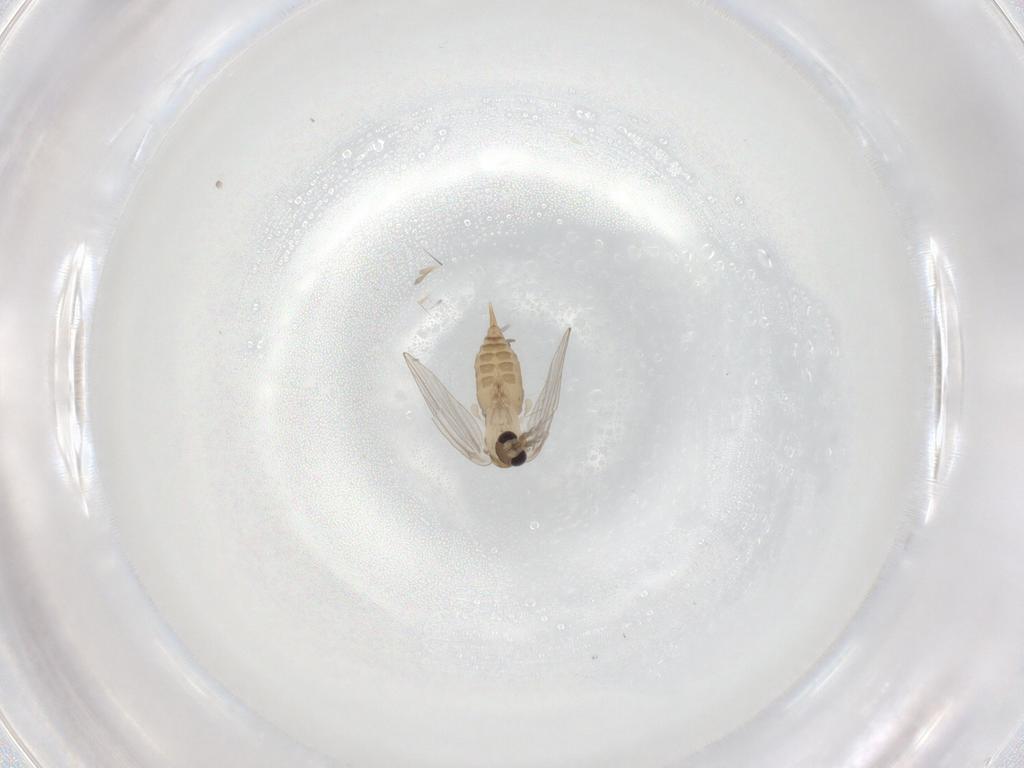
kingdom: Animalia
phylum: Arthropoda
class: Insecta
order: Diptera
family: Psychodidae
